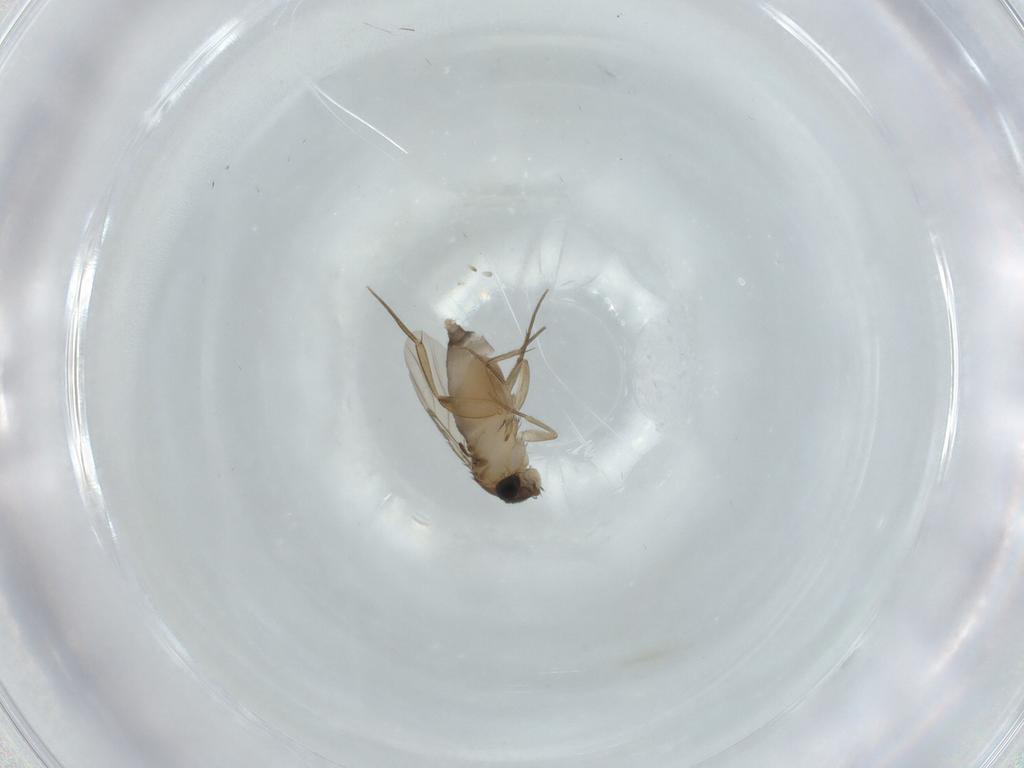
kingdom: Animalia
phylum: Arthropoda
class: Insecta
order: Diptera
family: Phoridae
